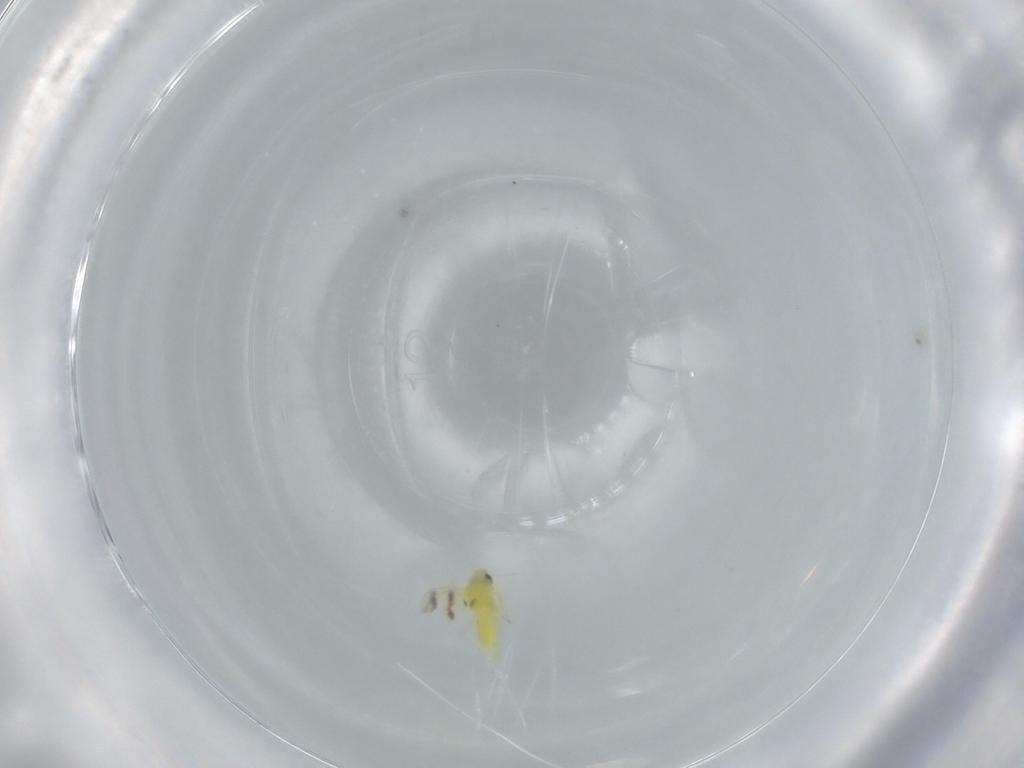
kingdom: Animalia
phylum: Arthropoda
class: Insecta
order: Hemiptera
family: Aleyrodidae
